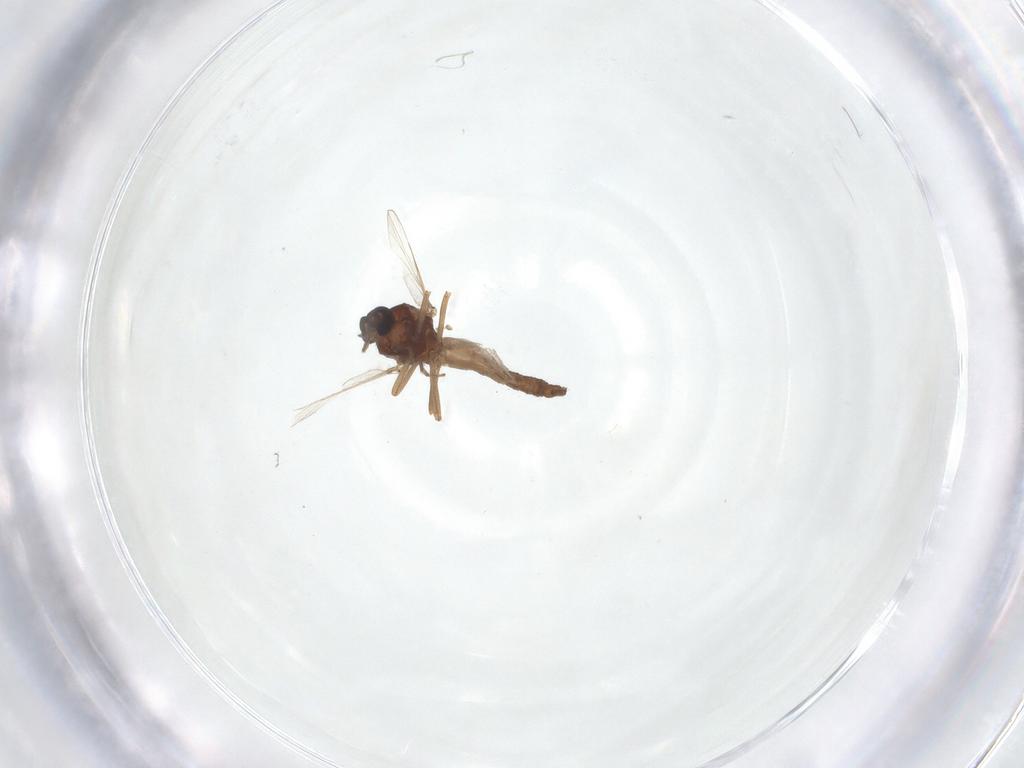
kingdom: Animalia
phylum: Arthropoda
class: Insecta
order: Diptera
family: Ceratopogonidae
